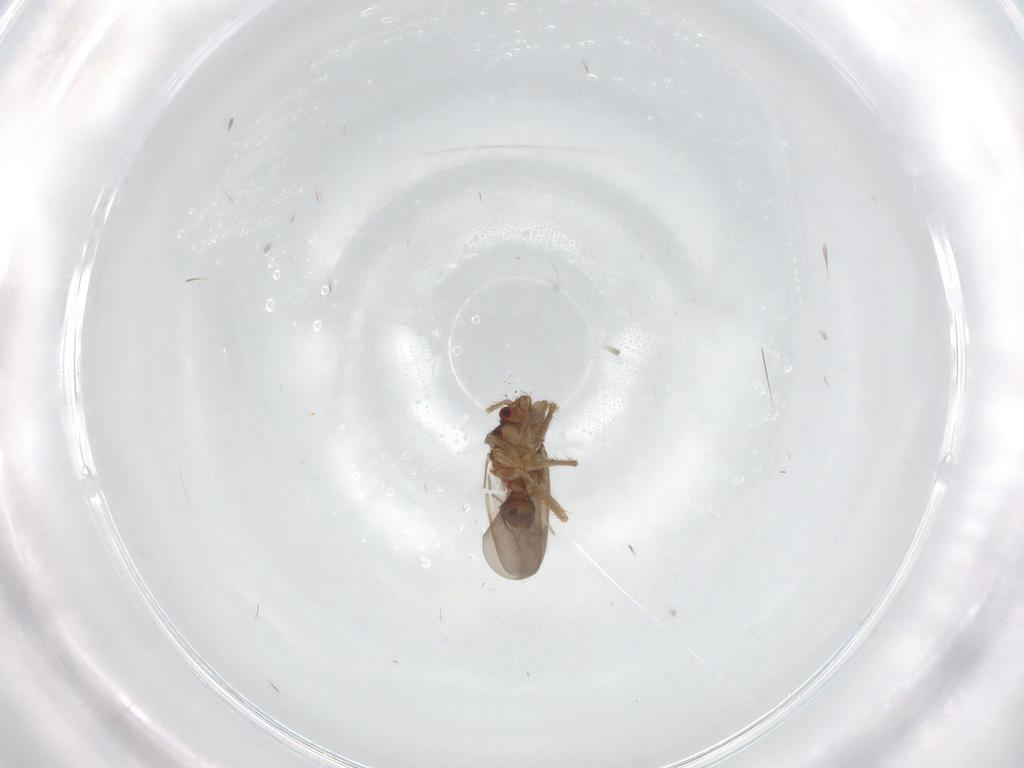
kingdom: Animalia
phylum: Arthropoda
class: Insecta
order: Hemiptera
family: Ceratocombidae
